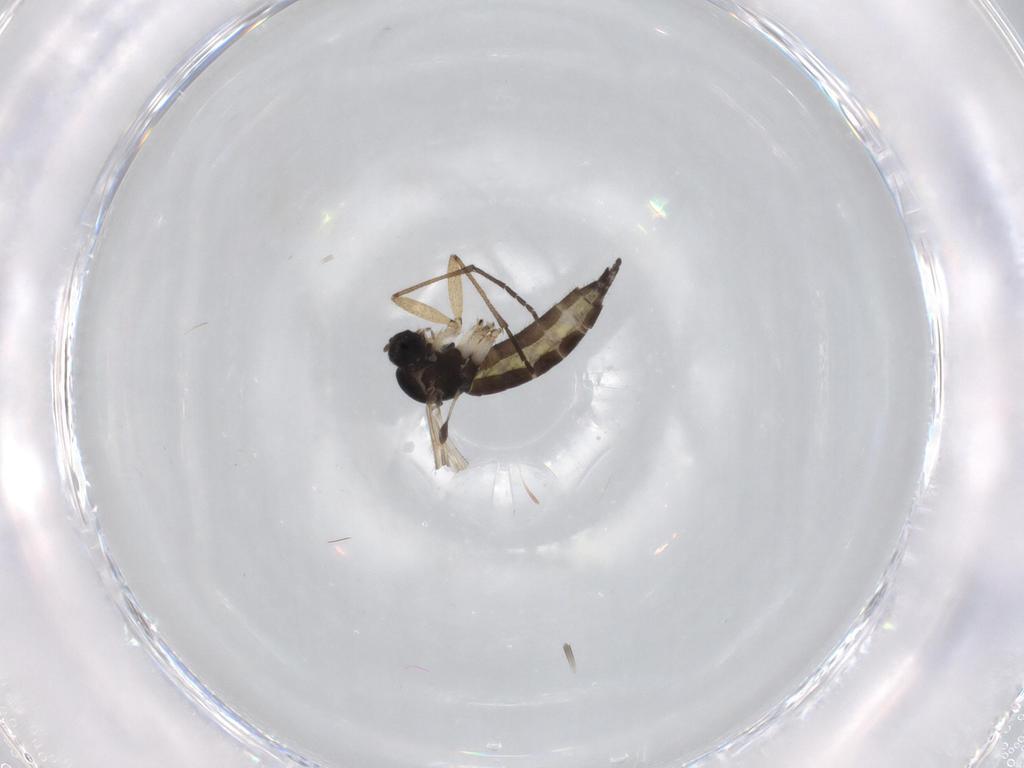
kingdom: Animalia
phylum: Arthropoda
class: Insecta
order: Diptera
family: Sciaridae
